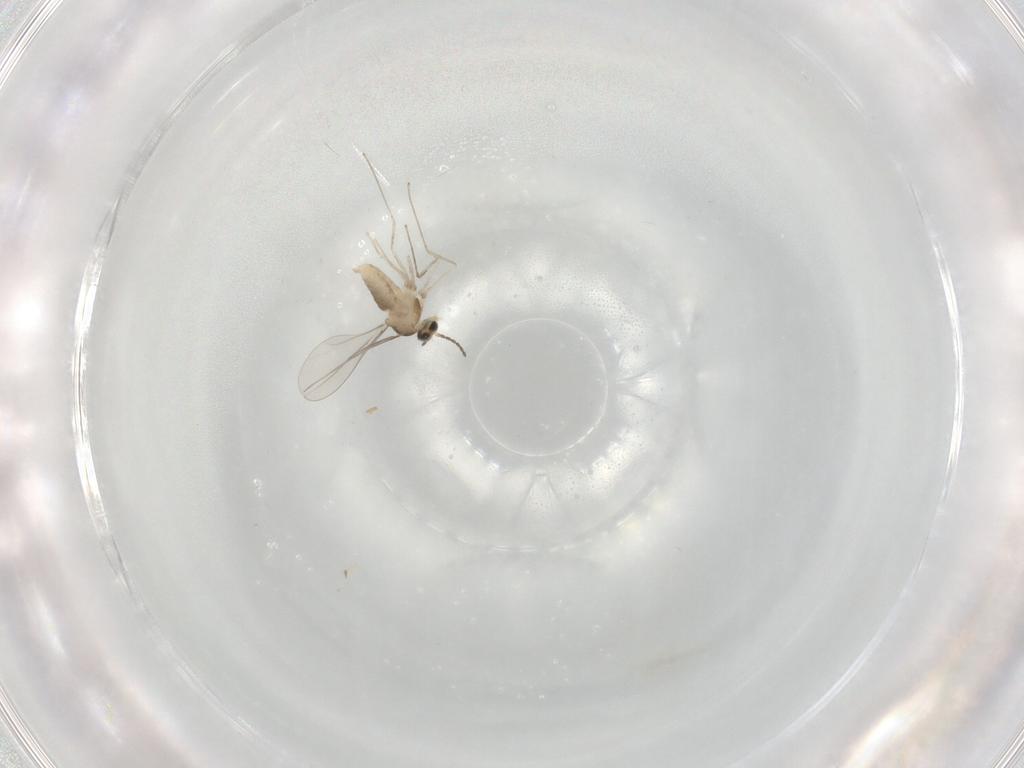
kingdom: Animalia
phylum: Arthropoda
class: Insecta
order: Diptera
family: Cecidomyiidae
